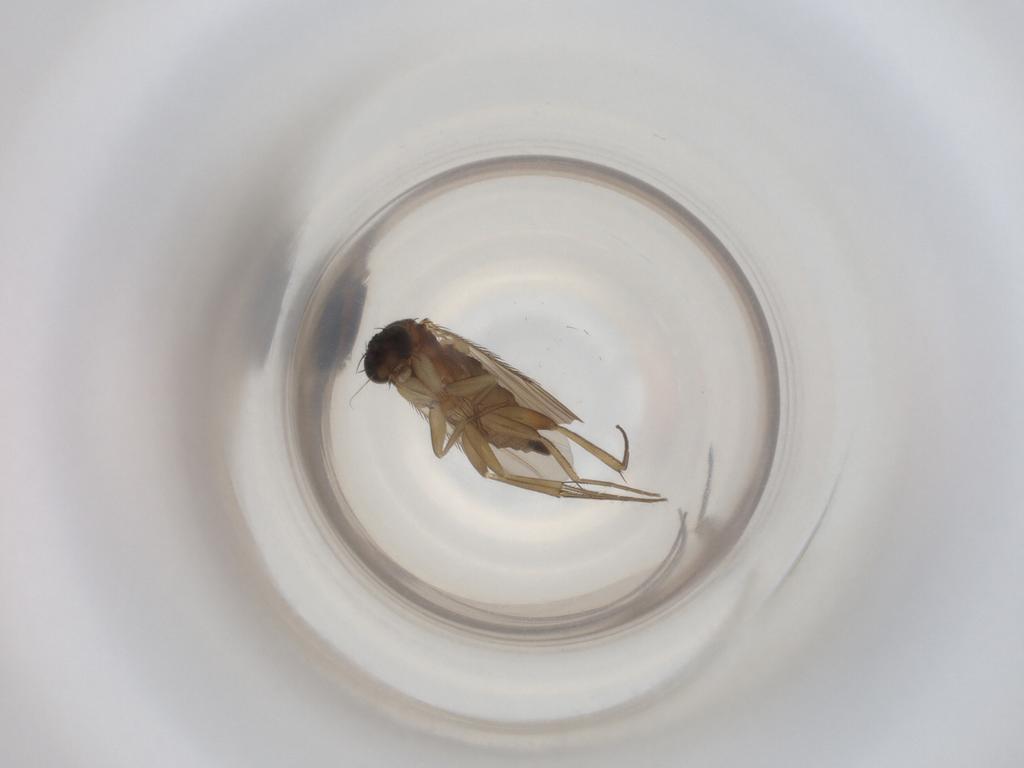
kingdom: Animalia
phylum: Arthropoda
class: Insecta
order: Diptera
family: Phoridae
